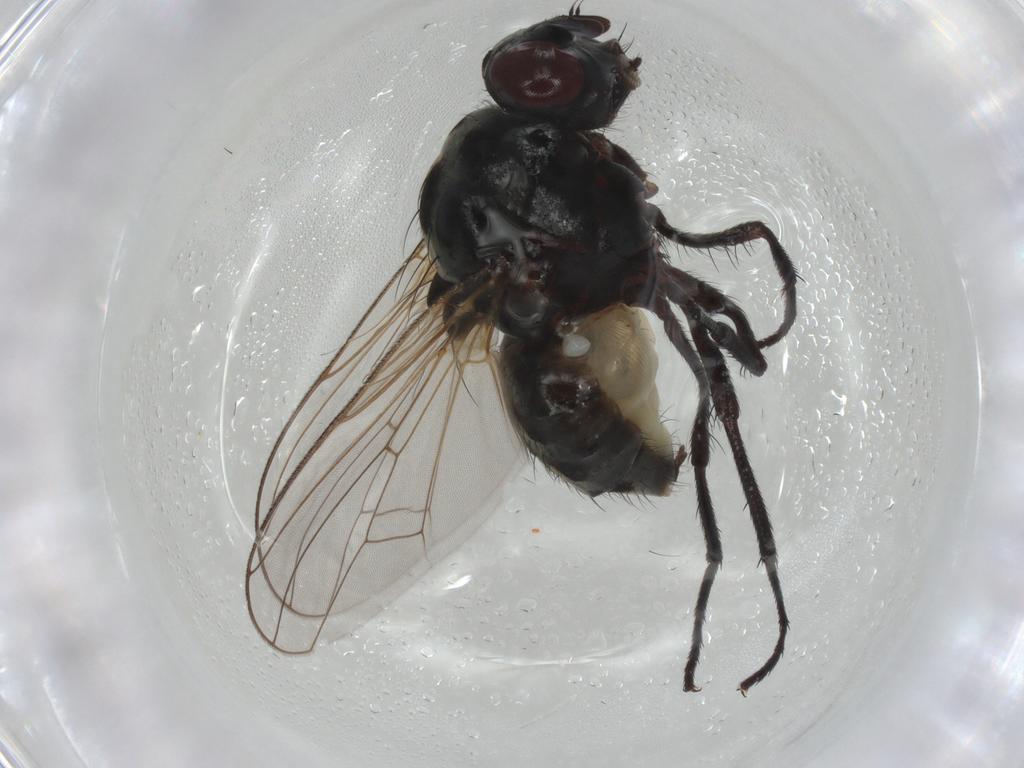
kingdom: Animalia
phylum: Arthropoda
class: Insecta
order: Diptera
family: Anthomyiidae
